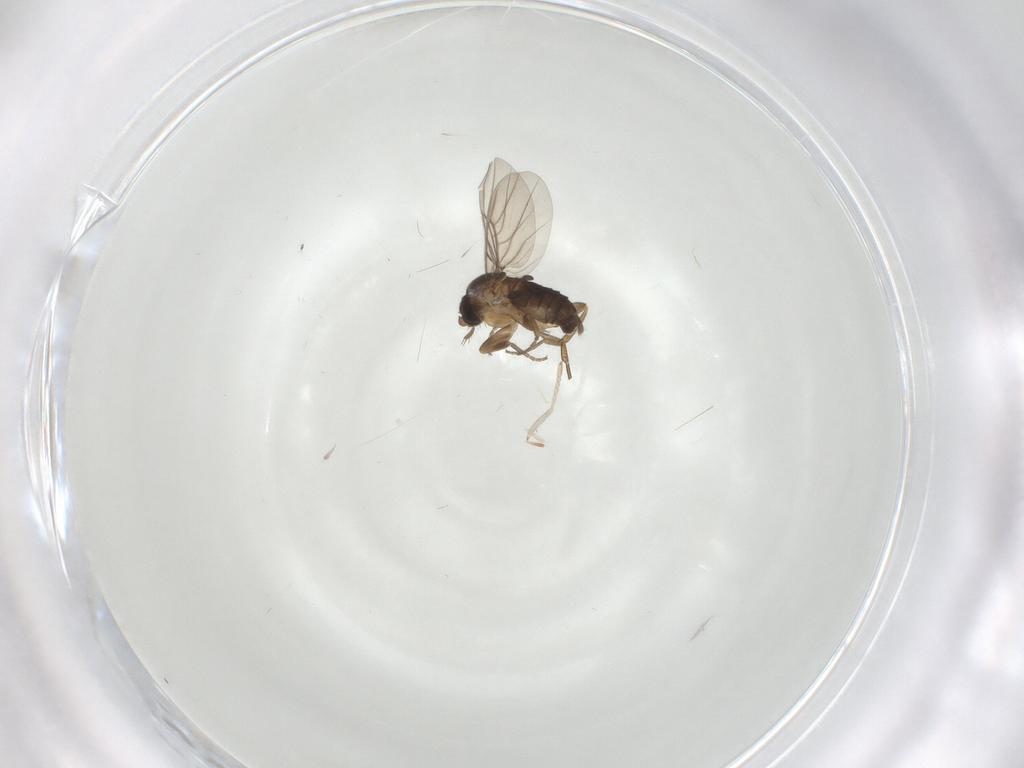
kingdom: Animalia
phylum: Arthropoda
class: Insecta
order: Diptera
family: Cecidomyiidae
